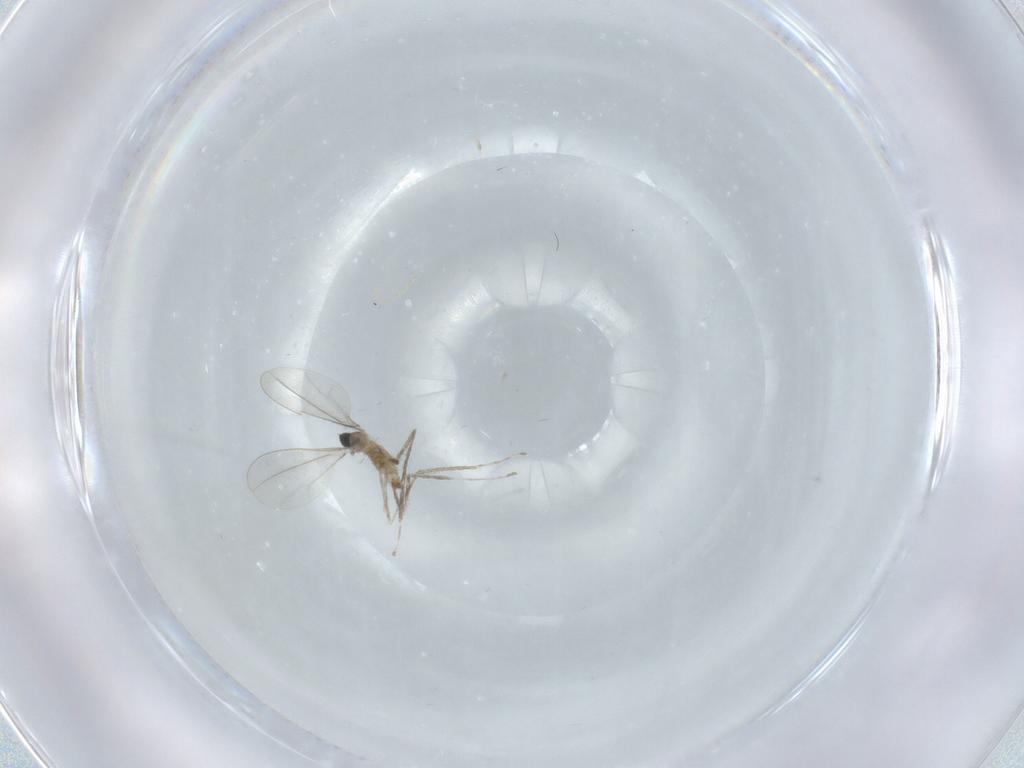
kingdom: Animalia
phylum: Arthropoda
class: Insecta
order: Diptera
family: Cecidomyiidae
